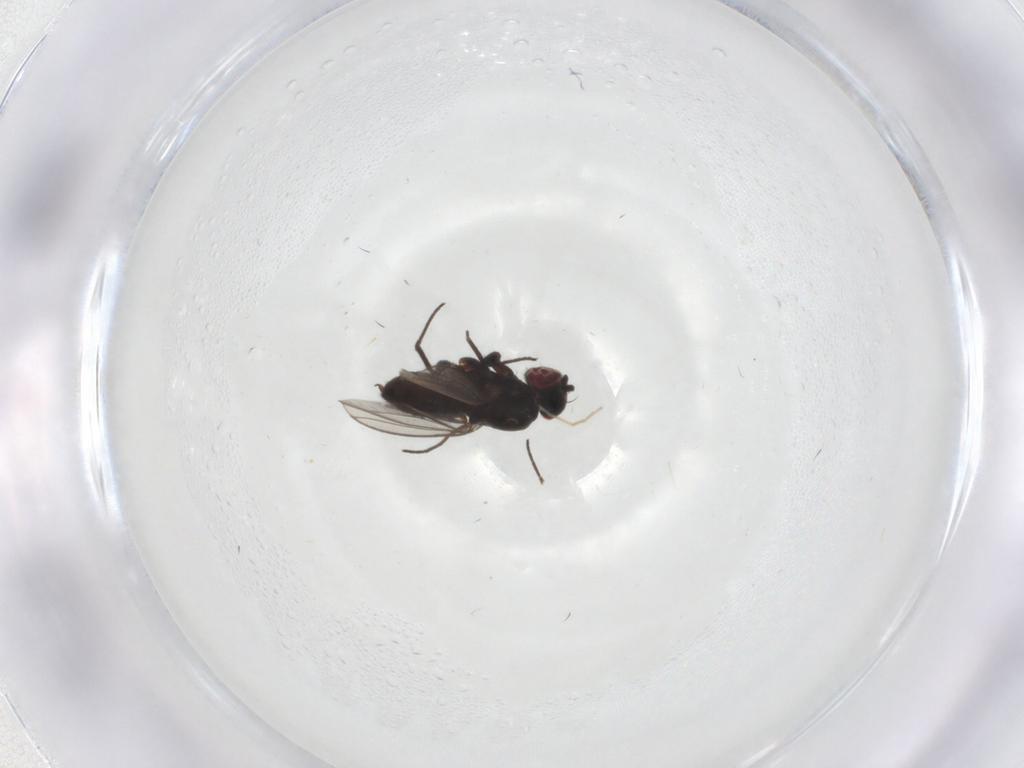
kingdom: Animalia
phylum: Arthropoda
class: Insecta
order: Diptera
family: Dolichopodidae
